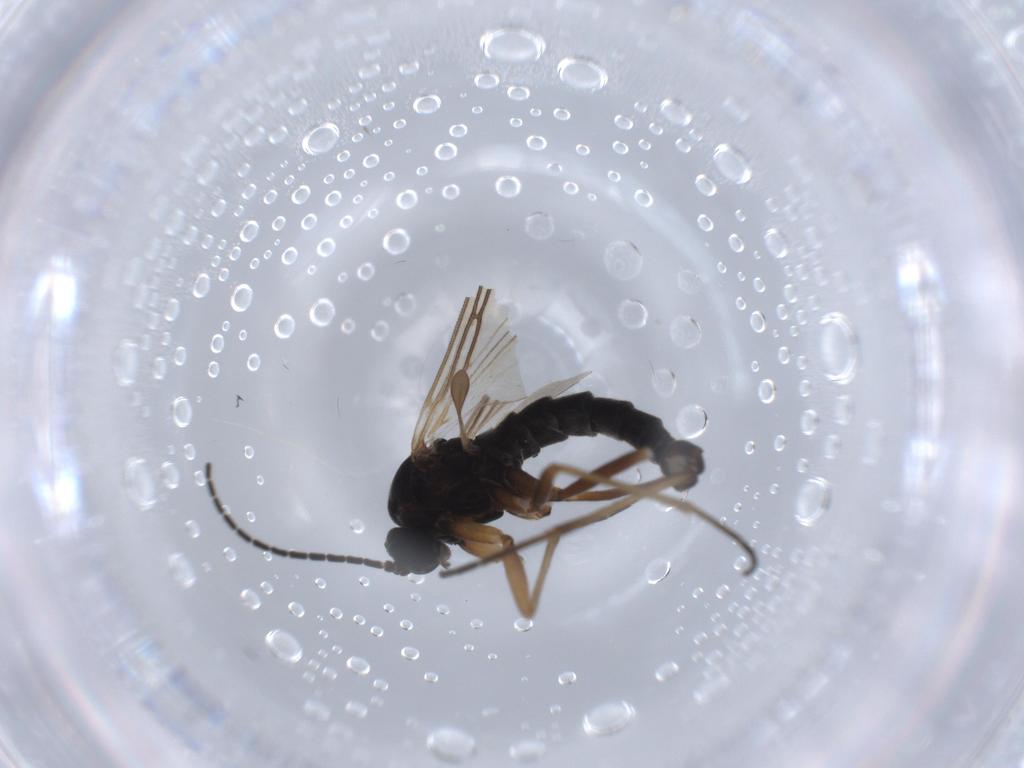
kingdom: Animalia
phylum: Arthropoda
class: Insecta
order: Diptera
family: Sciaridae
